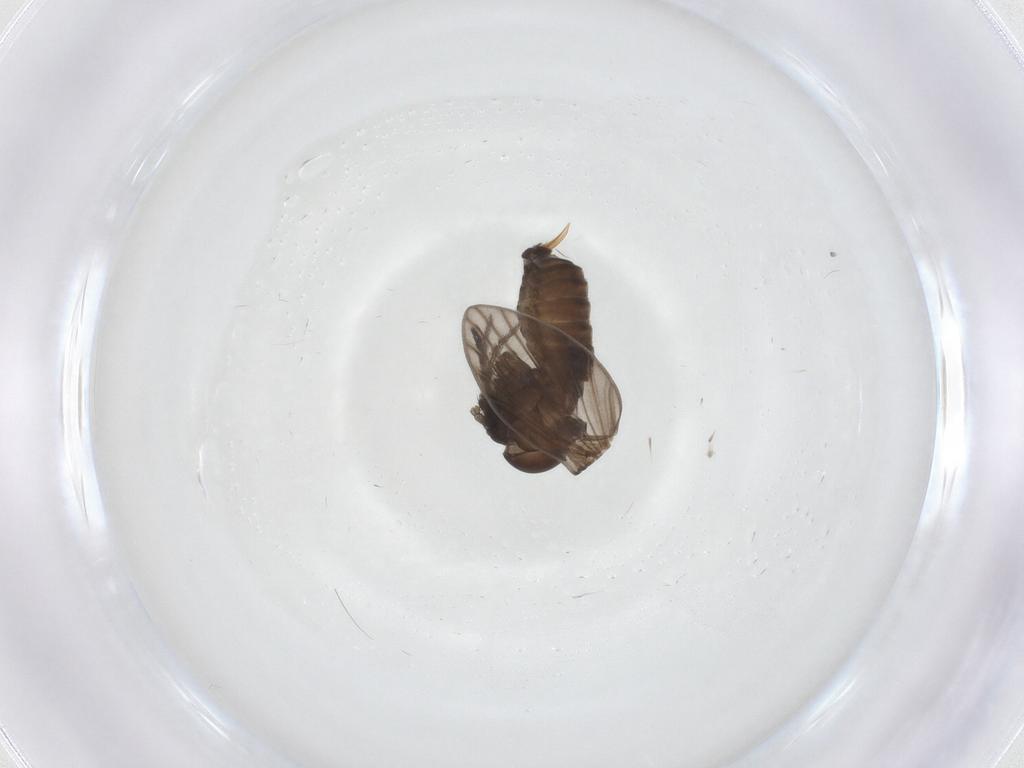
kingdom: Animalia
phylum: Arthropoda
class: Insecta
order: Diptera
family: Psychodidae
